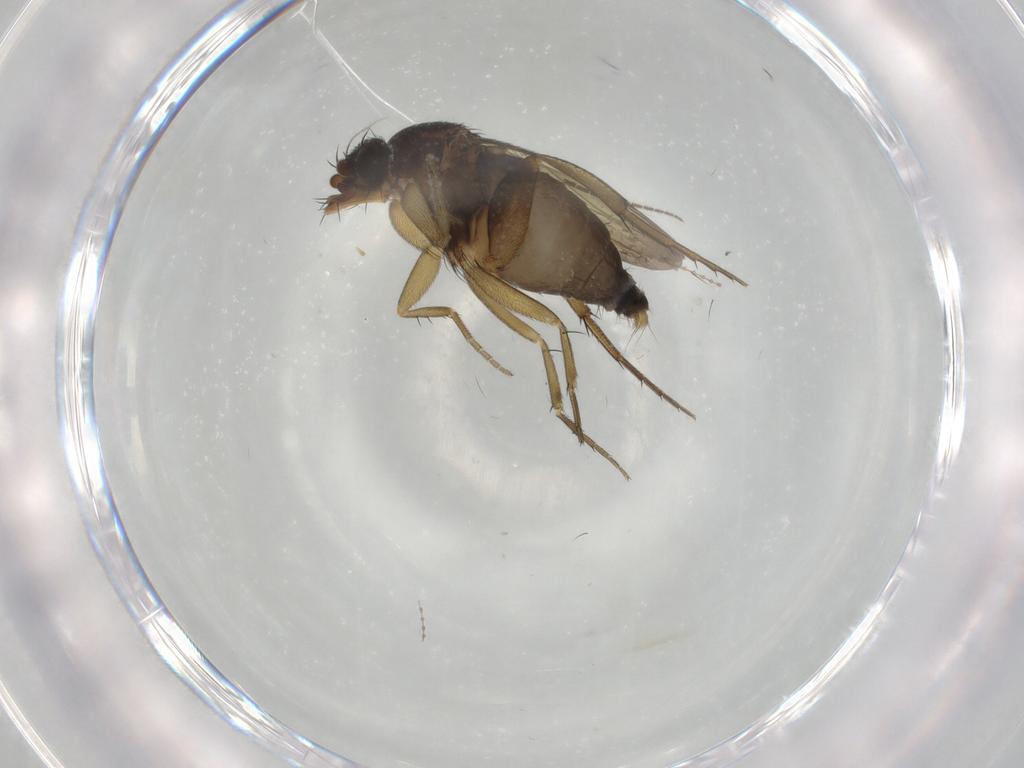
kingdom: Animalia
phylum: Arthropoda
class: Insecta
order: Diptera
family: Phoridae
